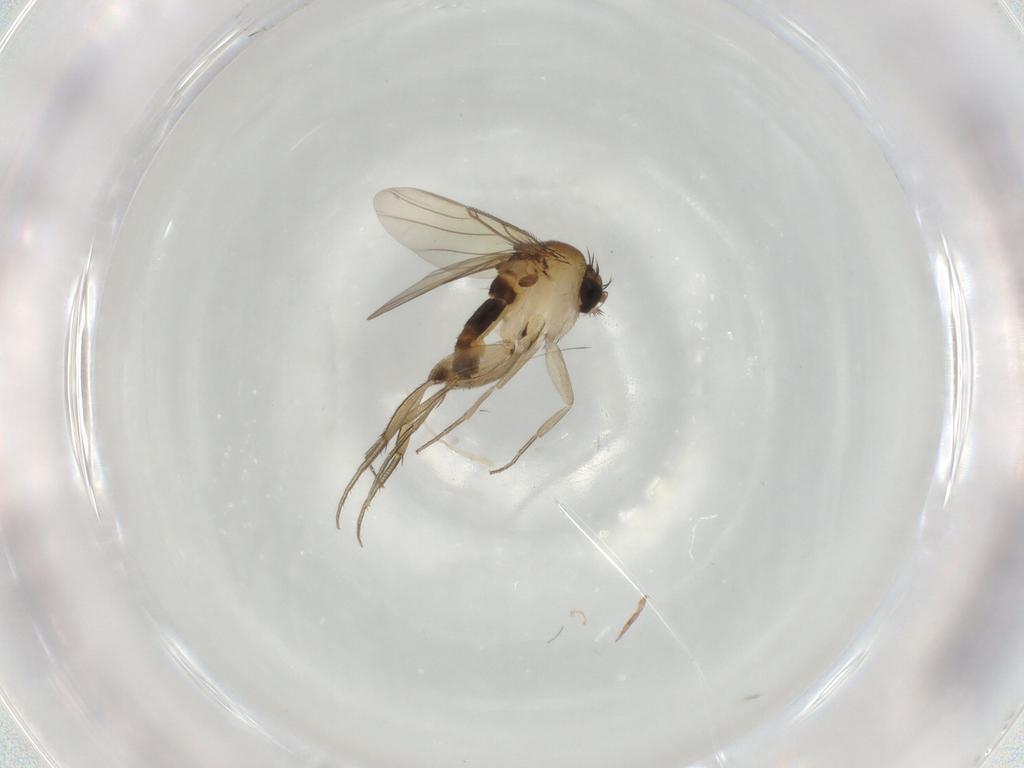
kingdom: Animalia
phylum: Arthropoda
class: Insecta
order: Diptera
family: Phoridae
